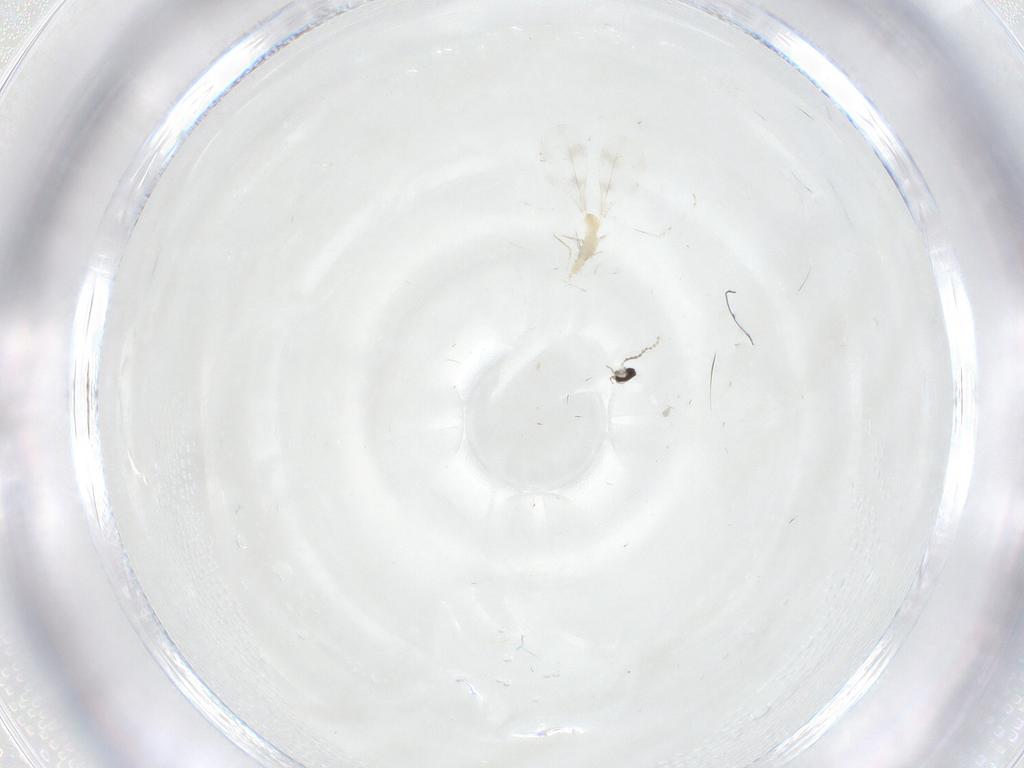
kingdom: Animalia
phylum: Arthropoda
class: Insecta
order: Diptera
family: Cecidomyiidae
